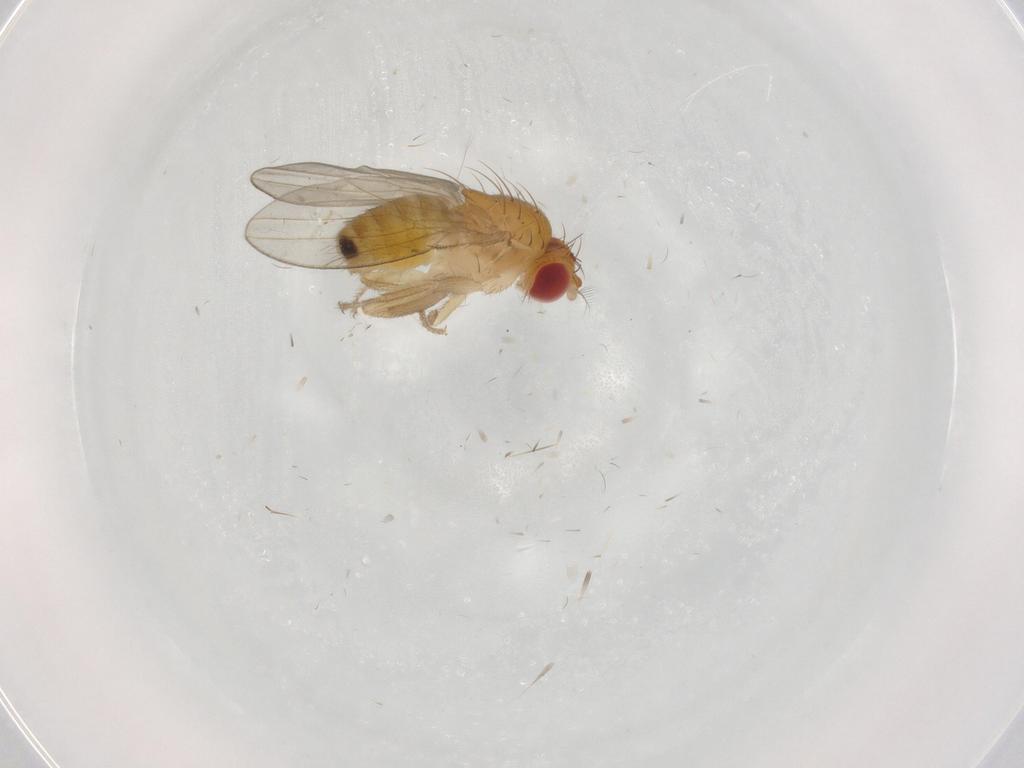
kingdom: Animalia
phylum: Arthropoda
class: Insecta
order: Diptera
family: Drosophilidae
